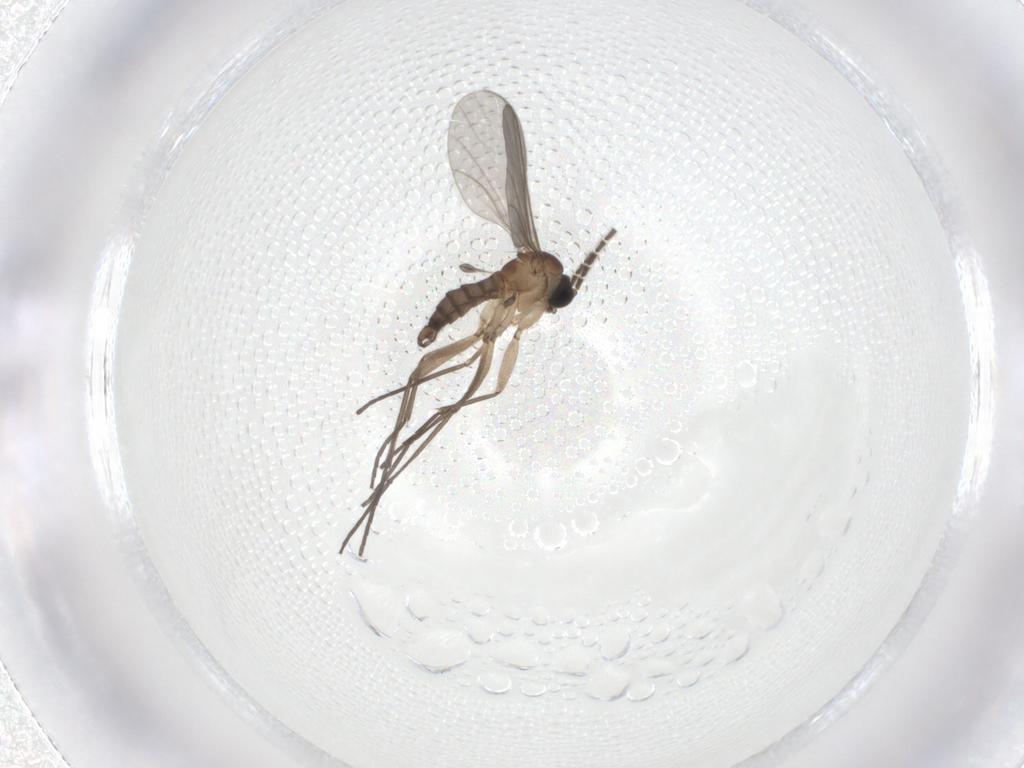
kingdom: Animalia
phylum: Arthropoda
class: Insecta
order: Diptera
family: Sciaridae
